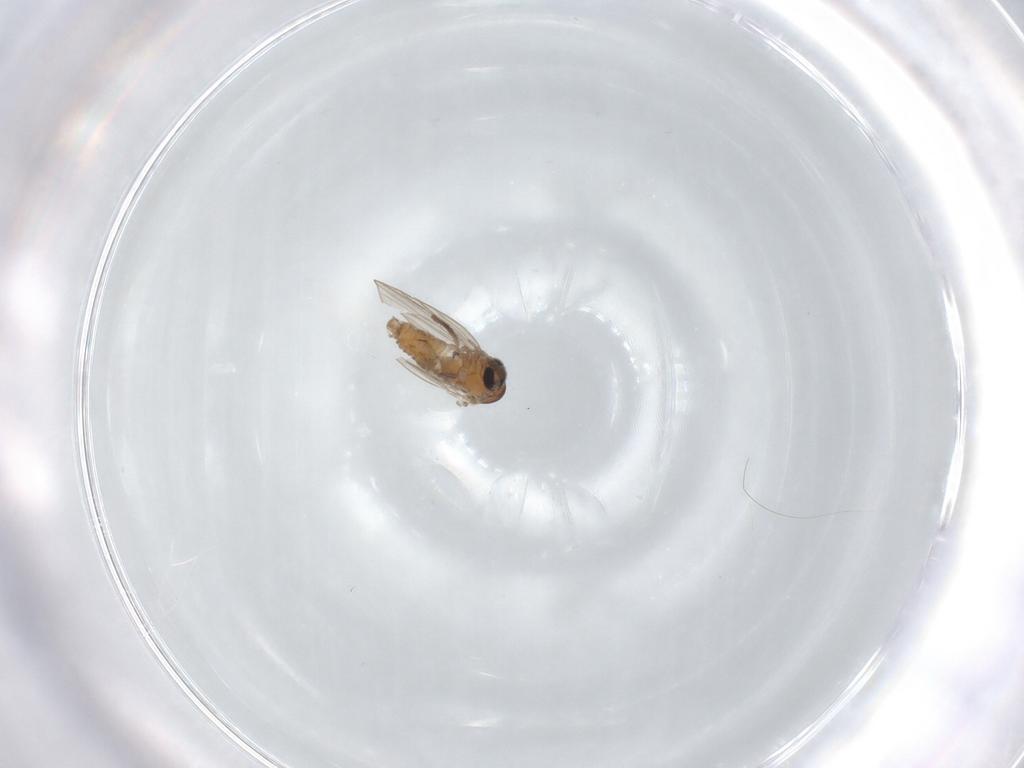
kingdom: Animalia
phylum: Arthropoda
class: Insecta
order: Diptera
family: Psychodidae
